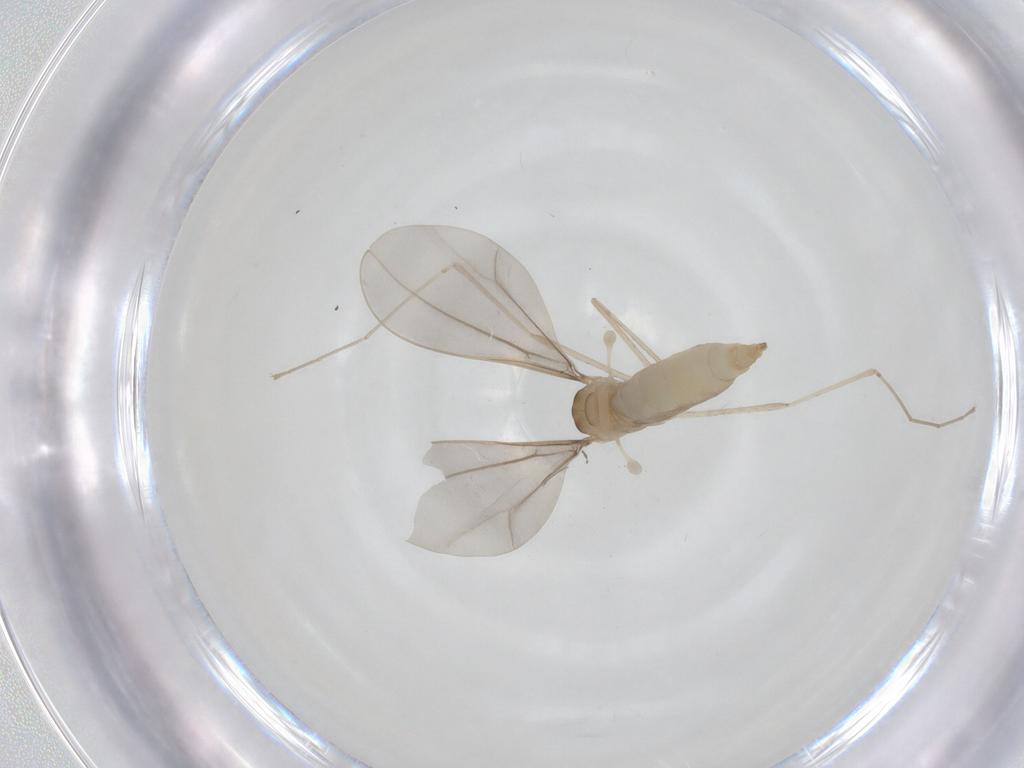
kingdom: Animalia
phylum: Arthropoda
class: Insecta
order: Diptera
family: Cecidomyiidae
